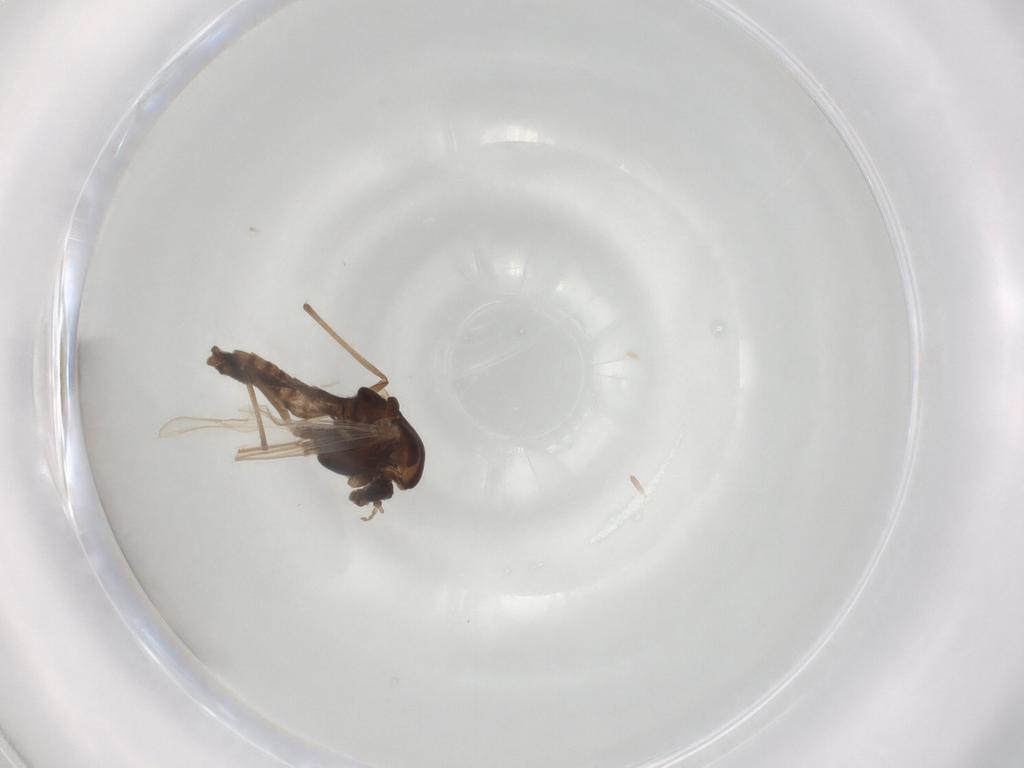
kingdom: Animalia
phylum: Arthropoda
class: Insecta
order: Diptera
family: Chironomidae
